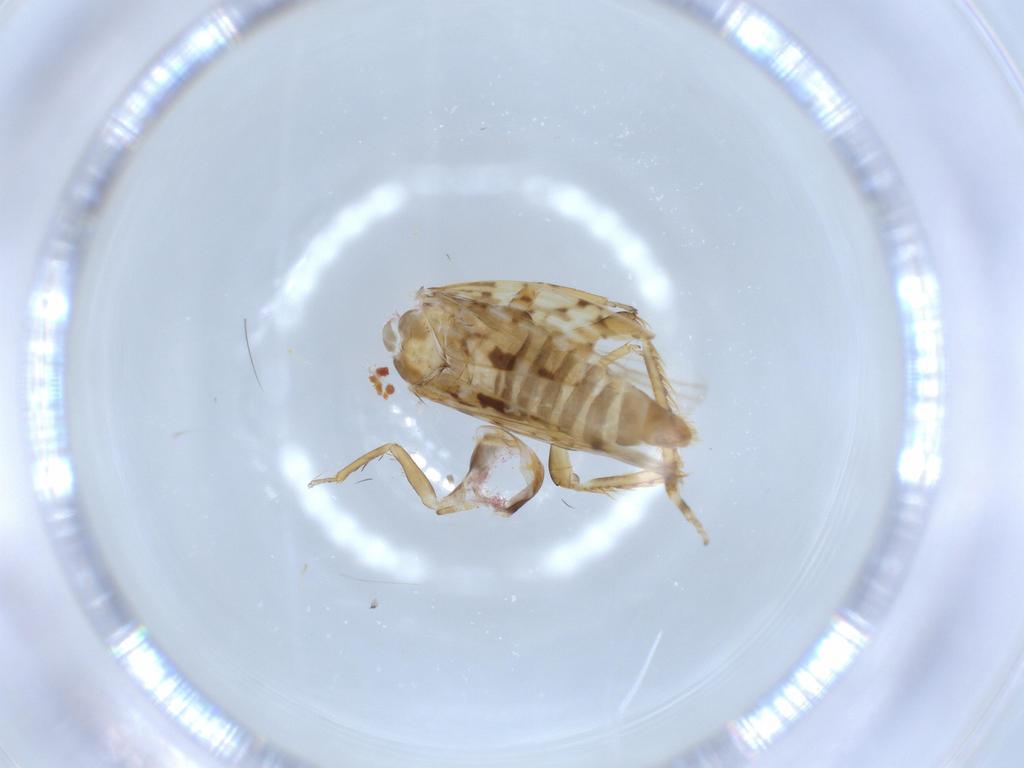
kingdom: Animalia
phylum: Arthropoda
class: Insecta
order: Hemiptera
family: Cicadellidae
